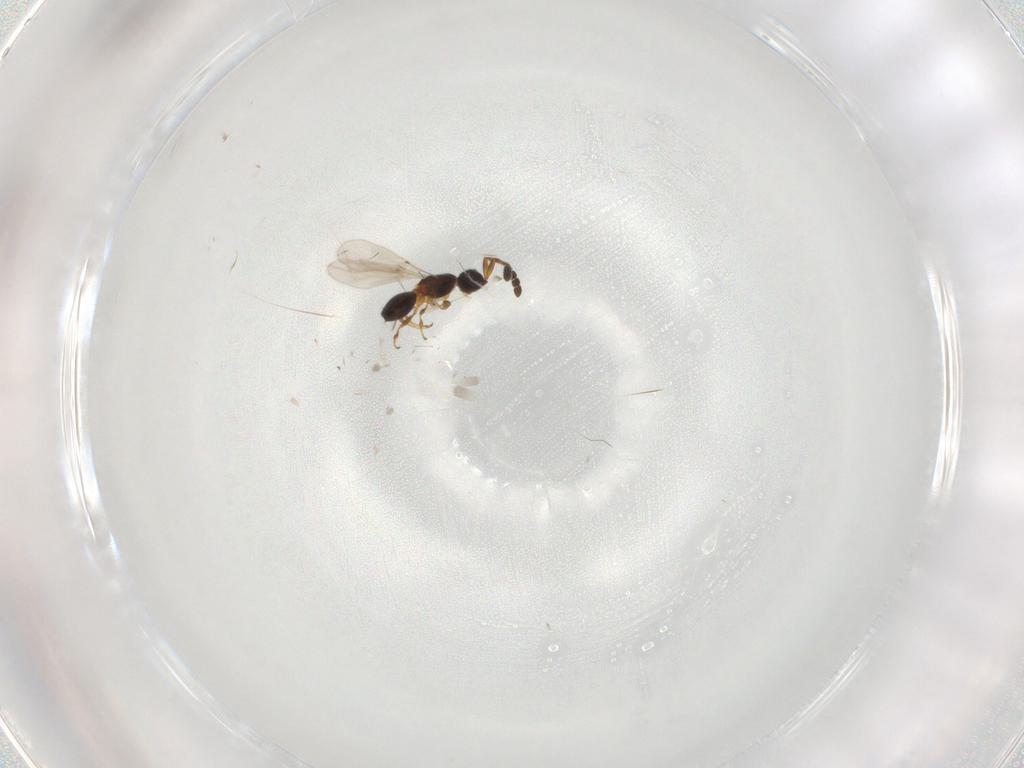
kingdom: Animalia
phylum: Arthropoda
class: Insecta
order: Hymenoptera
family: Diapriidae
